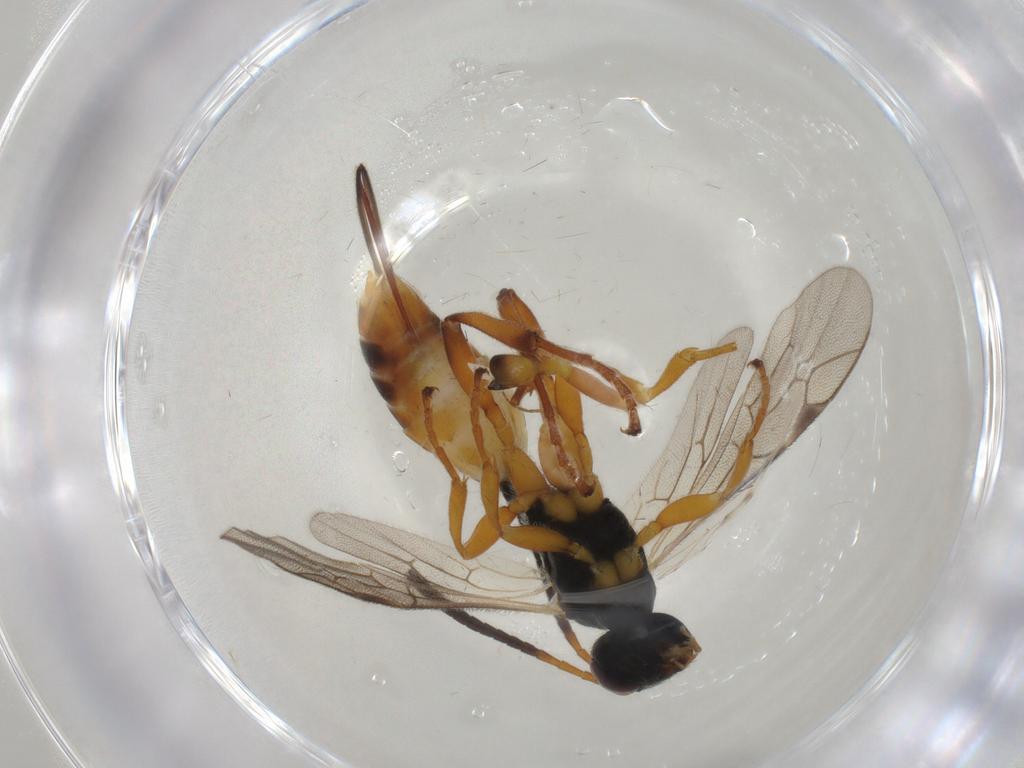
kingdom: Animalia
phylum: Arthropoda
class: Insecta
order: Hymenoptera
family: Ichneumonidae
